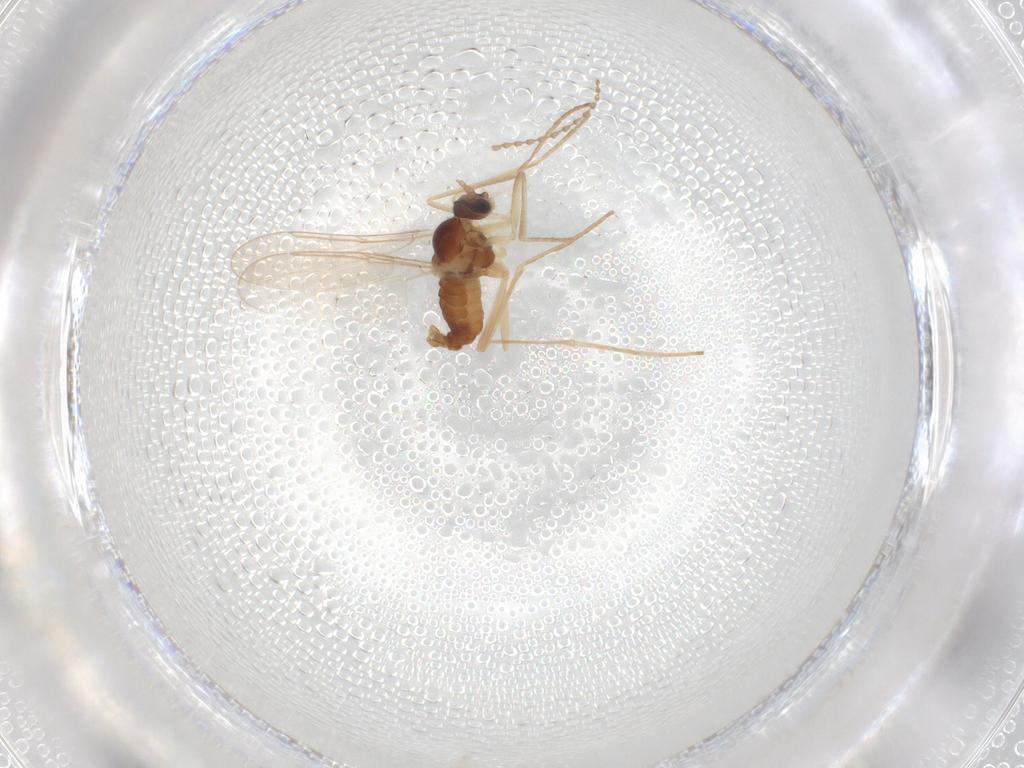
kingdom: Animalia
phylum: Arthropoda
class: Insecta
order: Diptera
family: Cecidomyiidae
